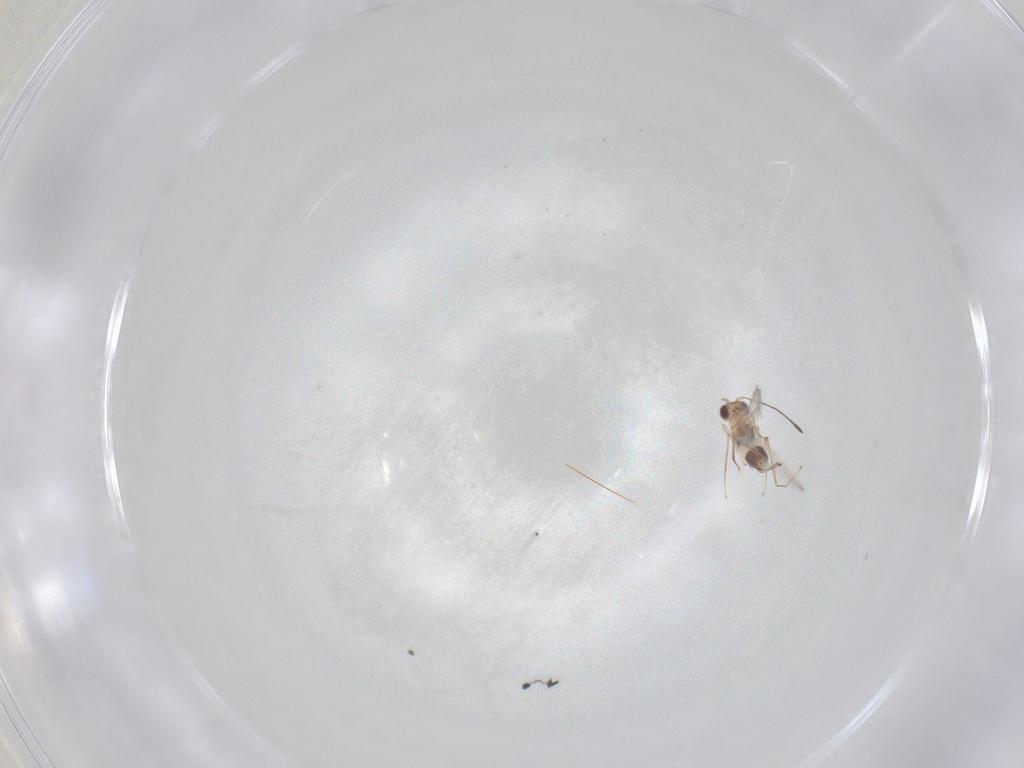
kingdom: Animalia
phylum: Arthropoda
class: Insecta
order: Hymenoptera
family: Mymaridae
